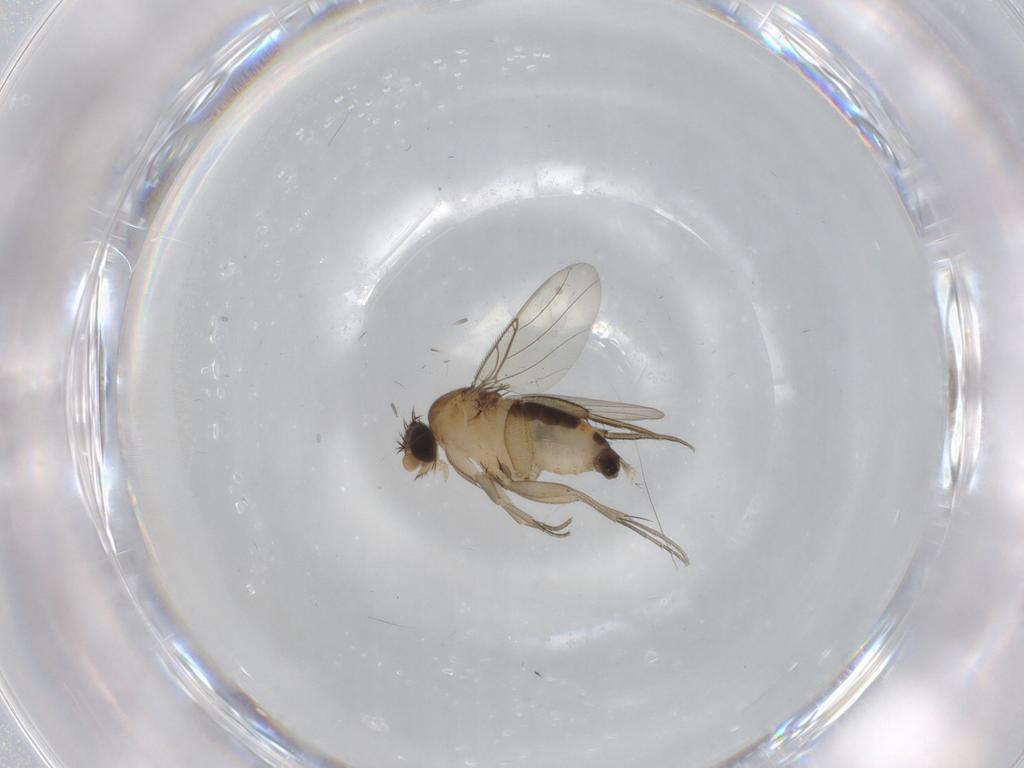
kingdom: Animalia
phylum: Arthropoda
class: Insecta
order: Diptera
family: Phoridae
